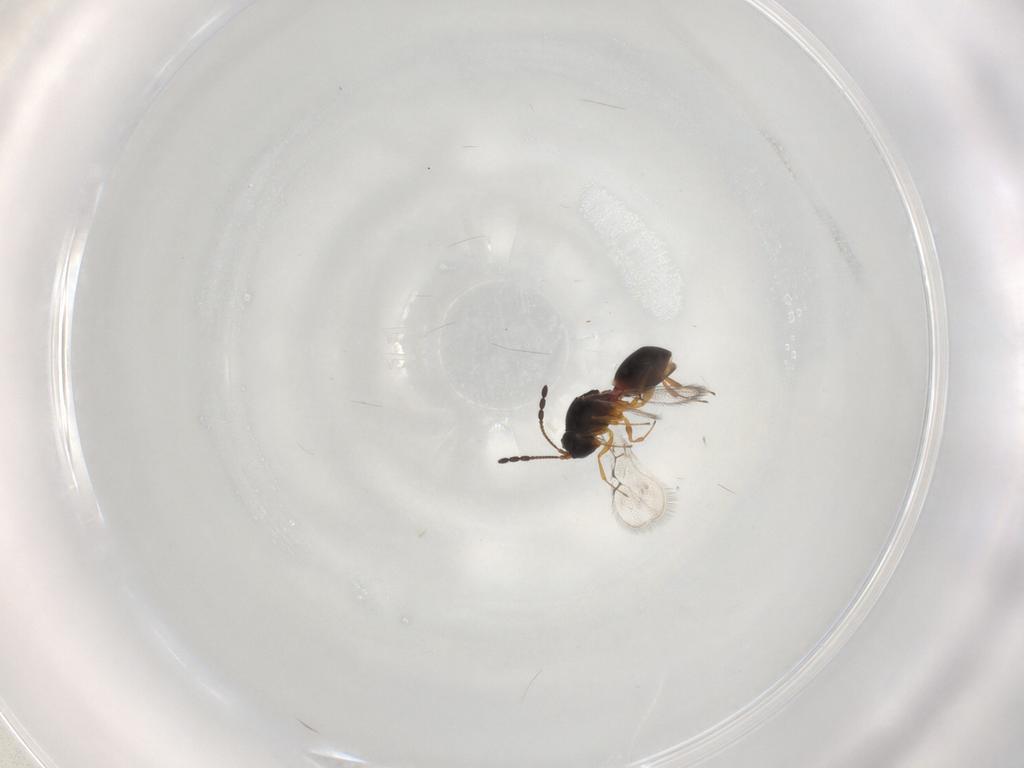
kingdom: Animalia
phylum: Arthropoda
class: Insecta
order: Hymenoptera
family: Figitidae
